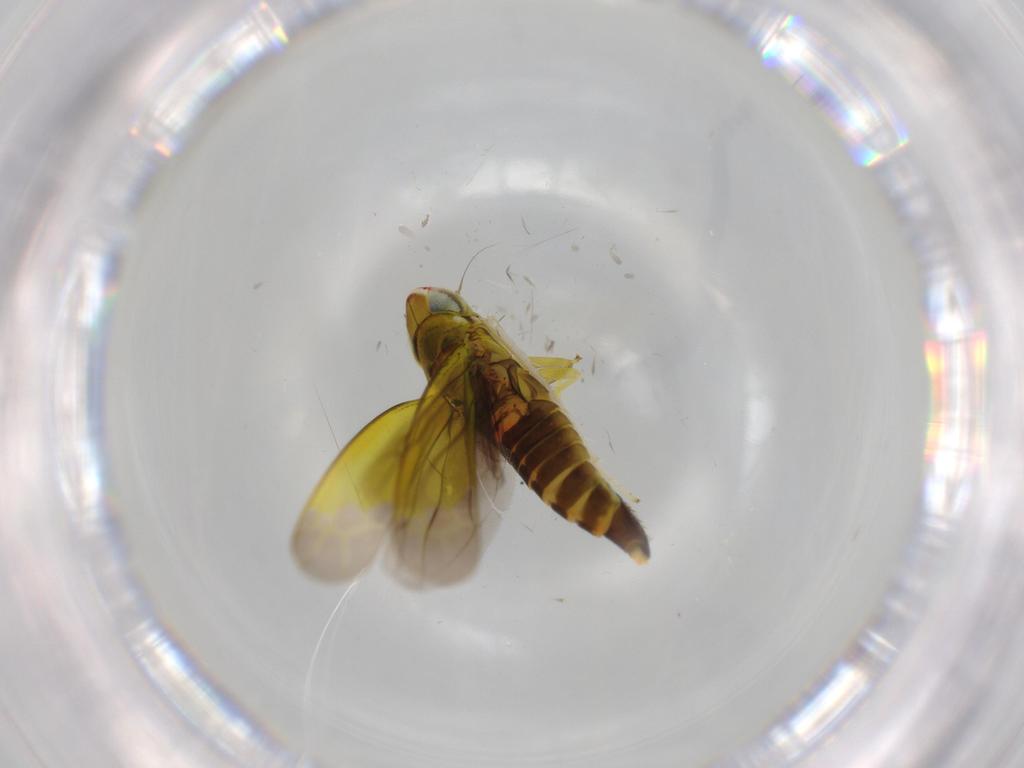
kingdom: Animalia
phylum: Arthropoda
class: Insecta
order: Hemiptera
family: Cicadellidae
